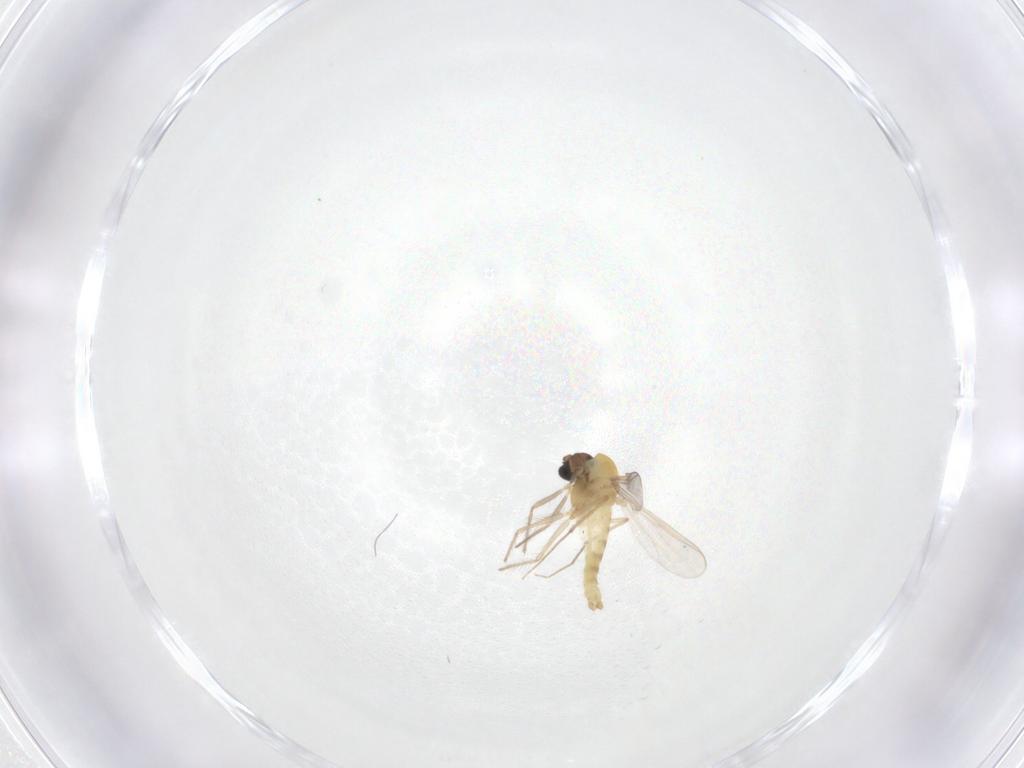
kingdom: Animalia
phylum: Arthropoda
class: Insecta
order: Diptera
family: Chironomidae
